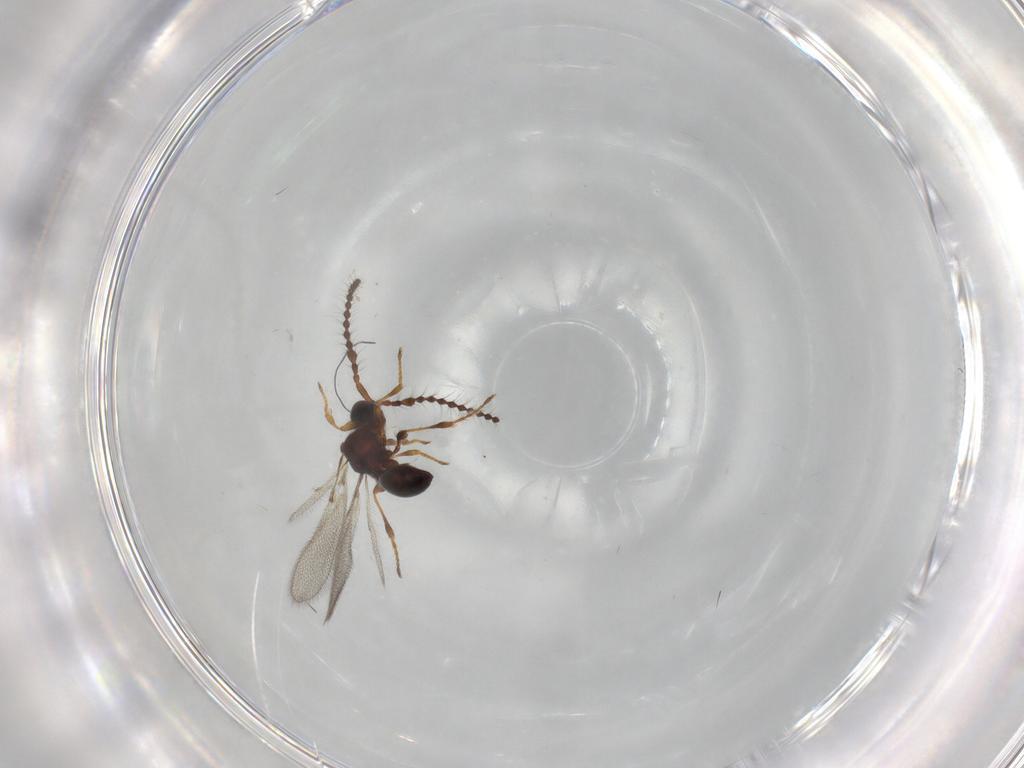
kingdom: Animalia
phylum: Arthropoda
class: Insecta
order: Hymenoptera
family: Diapriidae
